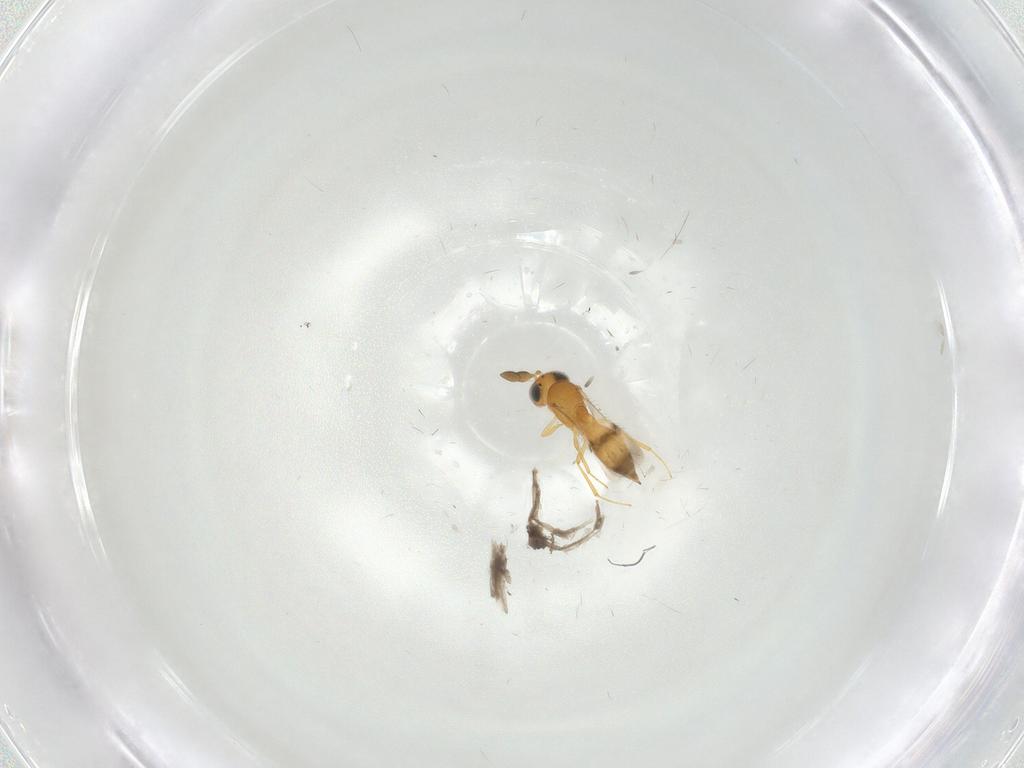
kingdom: Animalia
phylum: Arthropoda
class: Insecta
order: Hymenoptera
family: Scelionidae
